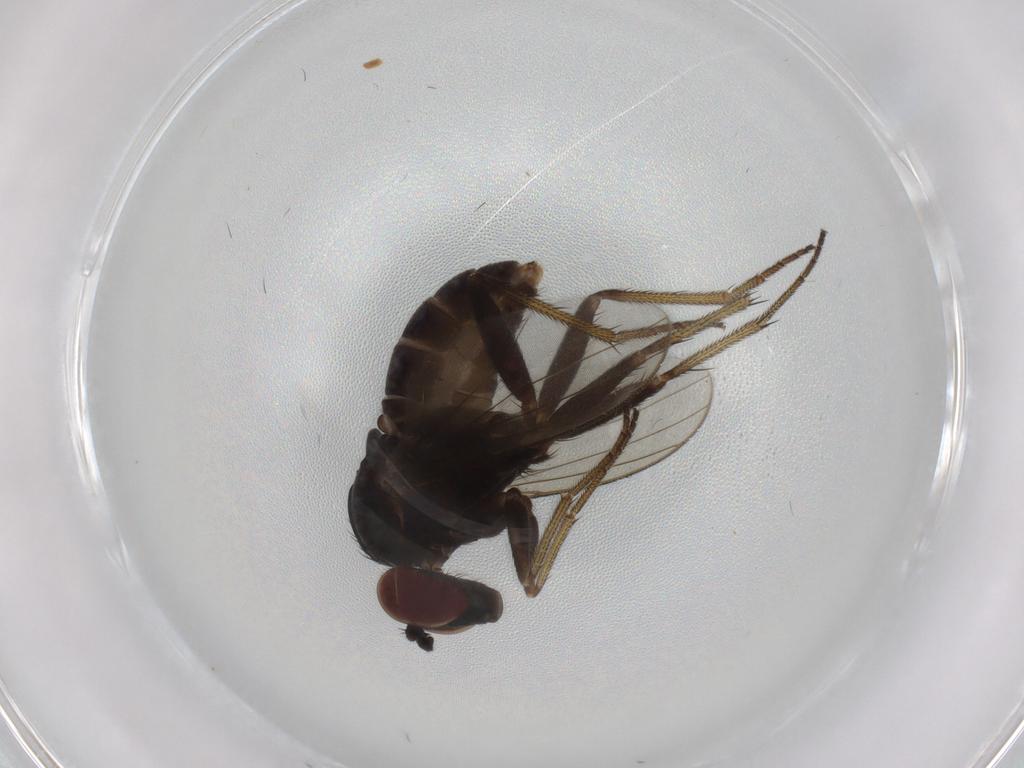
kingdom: Animalia
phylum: Arthropoda
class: Insecta
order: Diptera
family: Dolichopodidae
